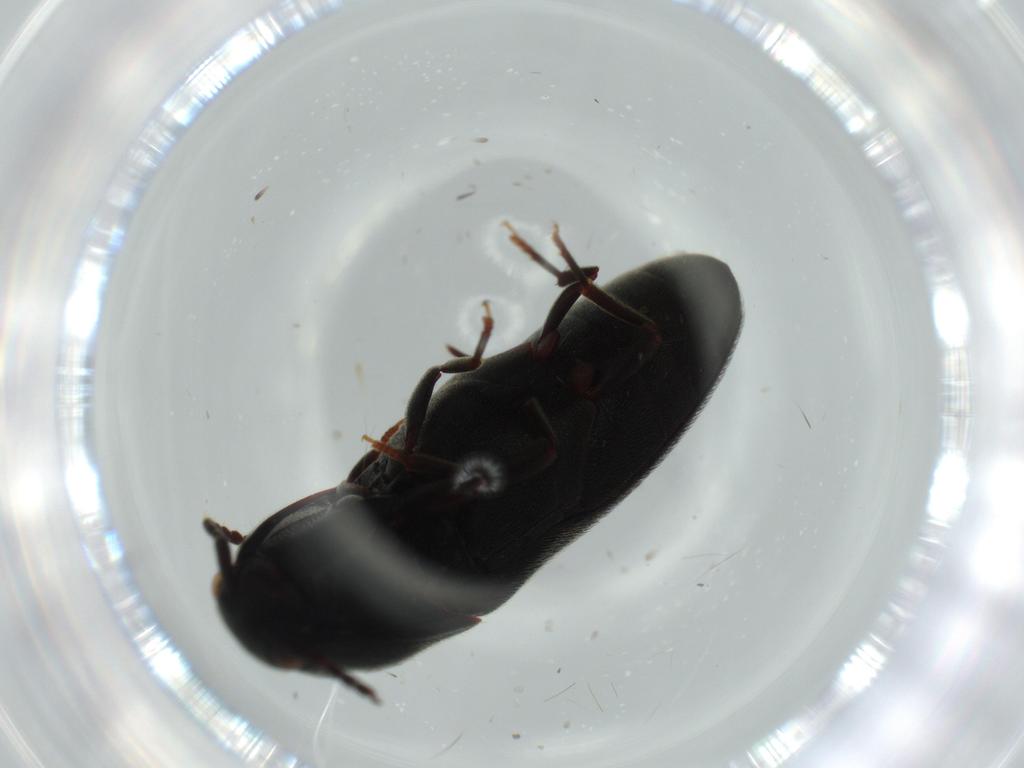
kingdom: Animalia
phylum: Arthropoda
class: Insecta
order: Coleoptera
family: Eucnemidae
